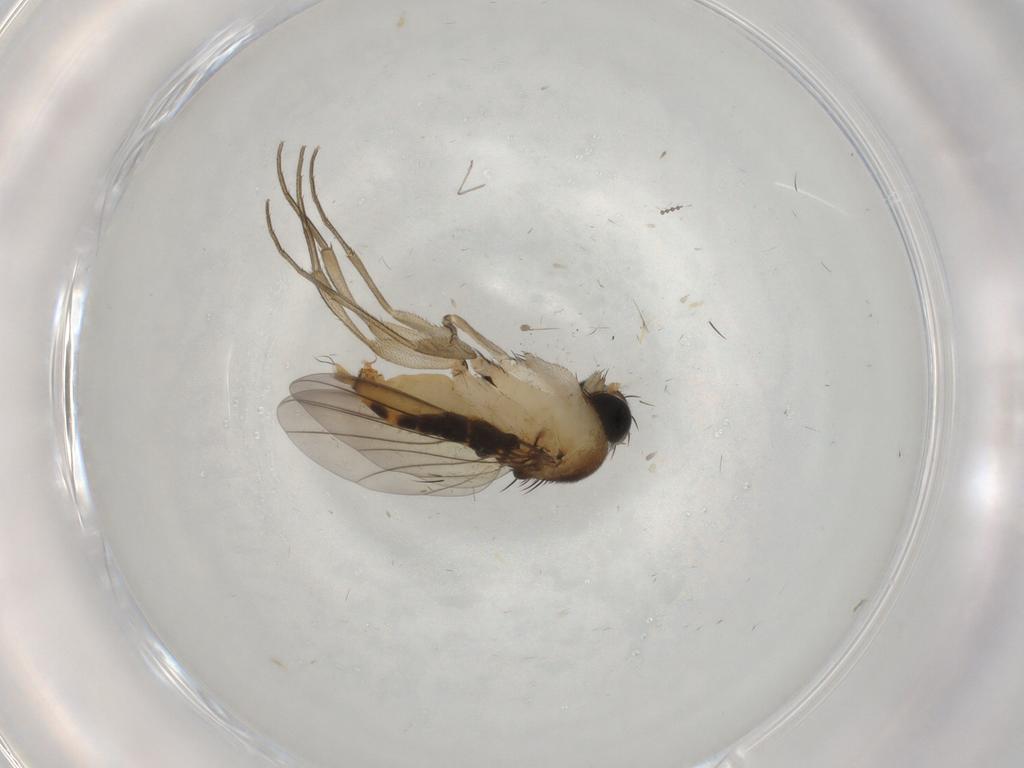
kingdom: Animalia
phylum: Arthropoda
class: Insecta
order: Diptera
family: Phoridae
